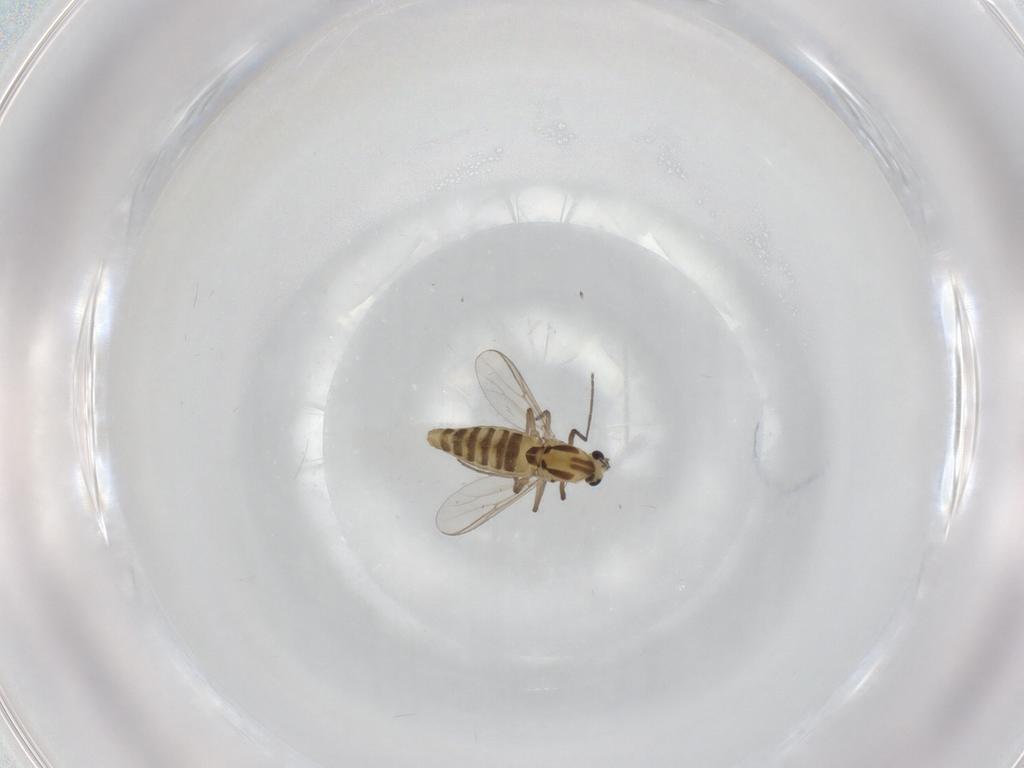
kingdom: Animalia
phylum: Arthropoda
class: Insecta
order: Diptera
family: Chironomidae
